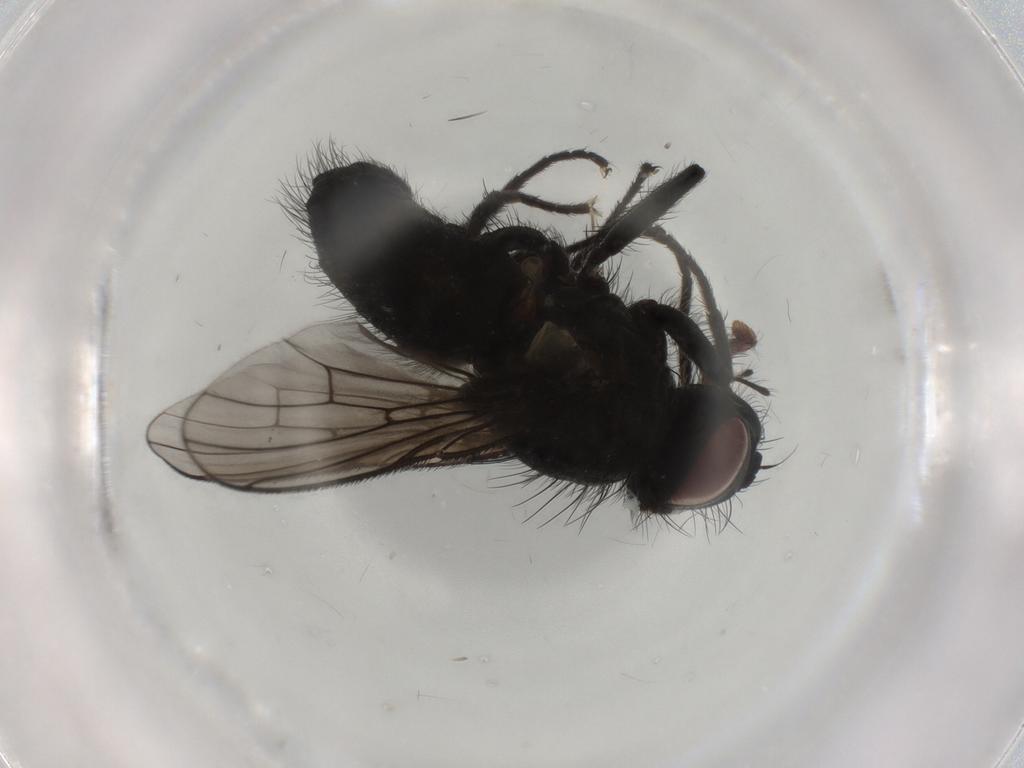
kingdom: Animalia
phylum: Arthropoda
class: Insecta
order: Diptera
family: Muscidae
